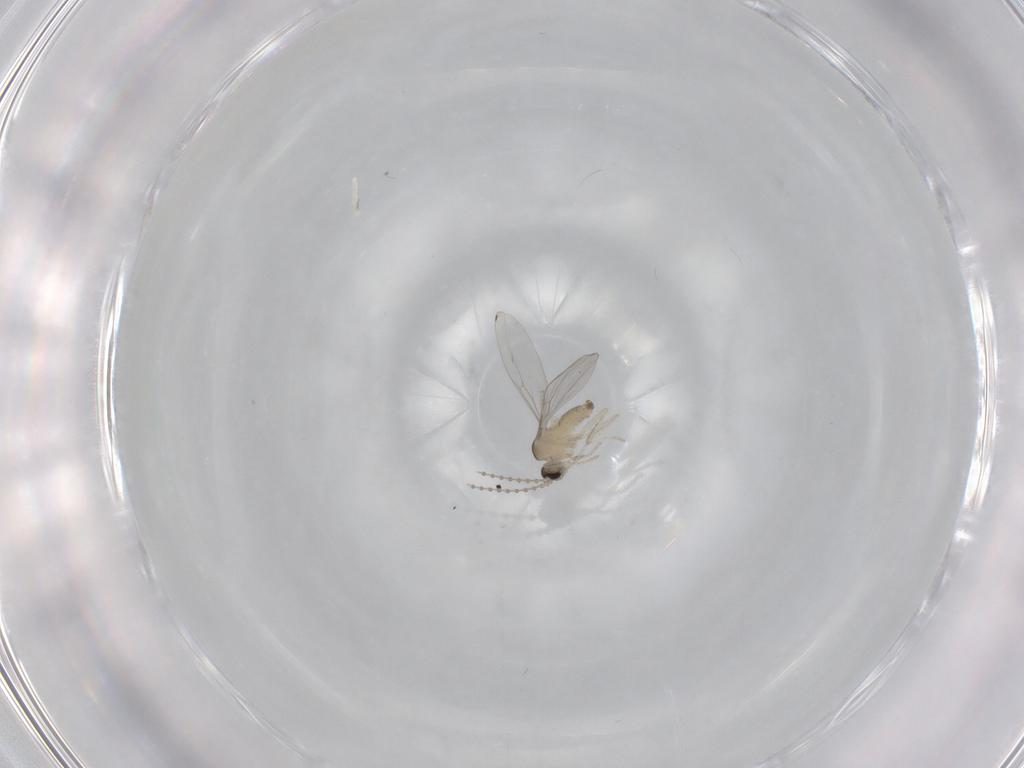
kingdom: Animalia
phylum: Arthropoda
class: Insecta
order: Diptera
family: Cecidomyiidae
